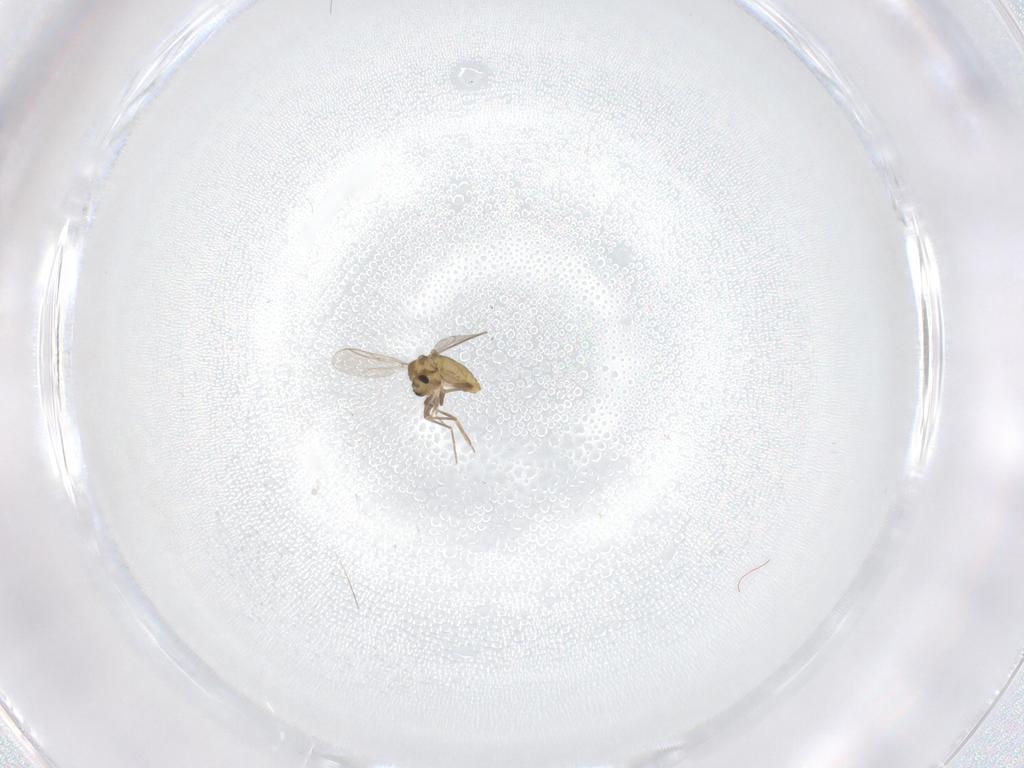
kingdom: Animalia
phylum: Arthropoda
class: Insecta
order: Diptera
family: Chironomidae
